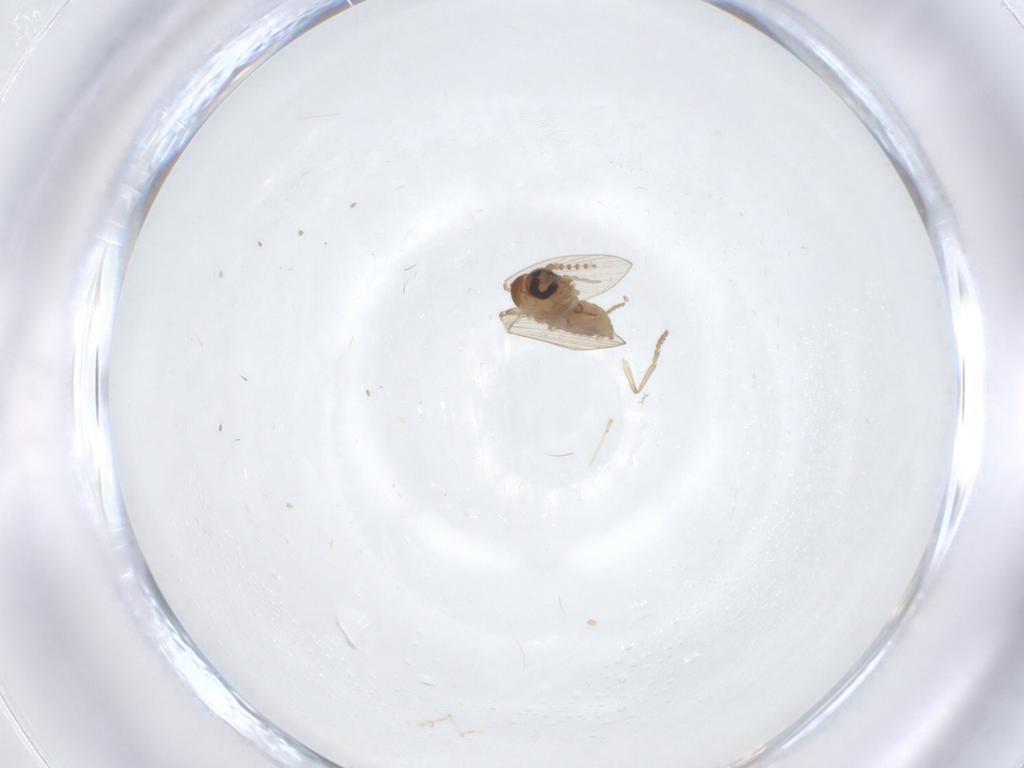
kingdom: Animalia
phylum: Arthropoda
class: Insecta
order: Diptera
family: Psychodidae
